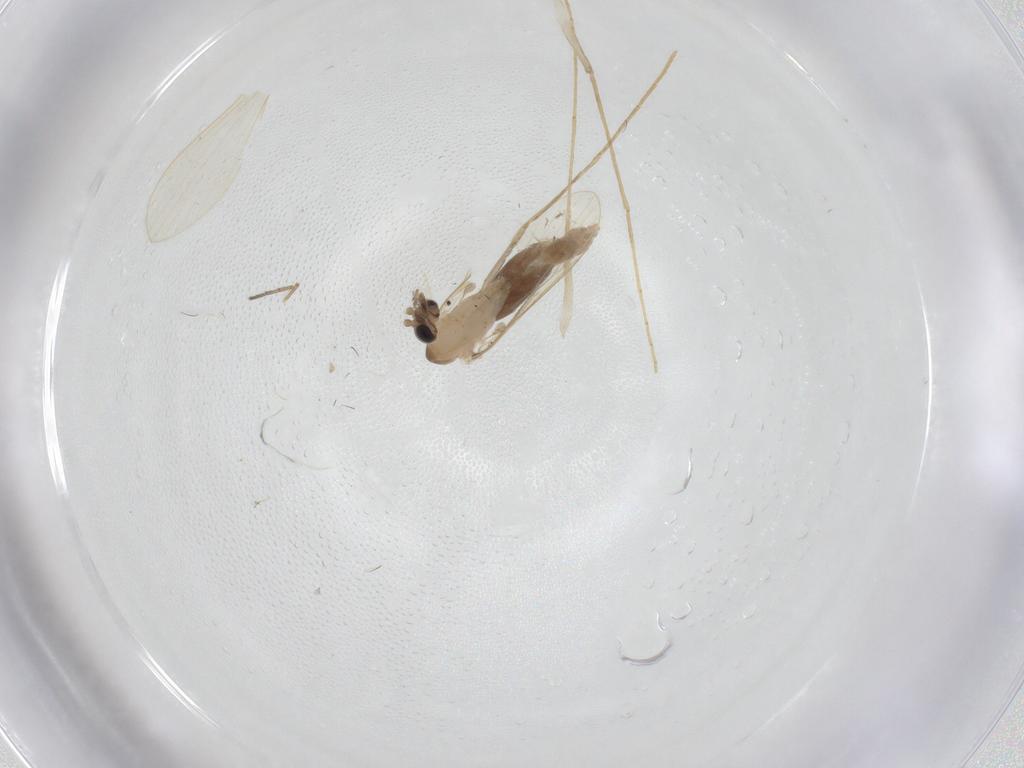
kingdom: Animalia
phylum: Arthropoda
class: Insecta
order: Diptera
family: Psychodidae
